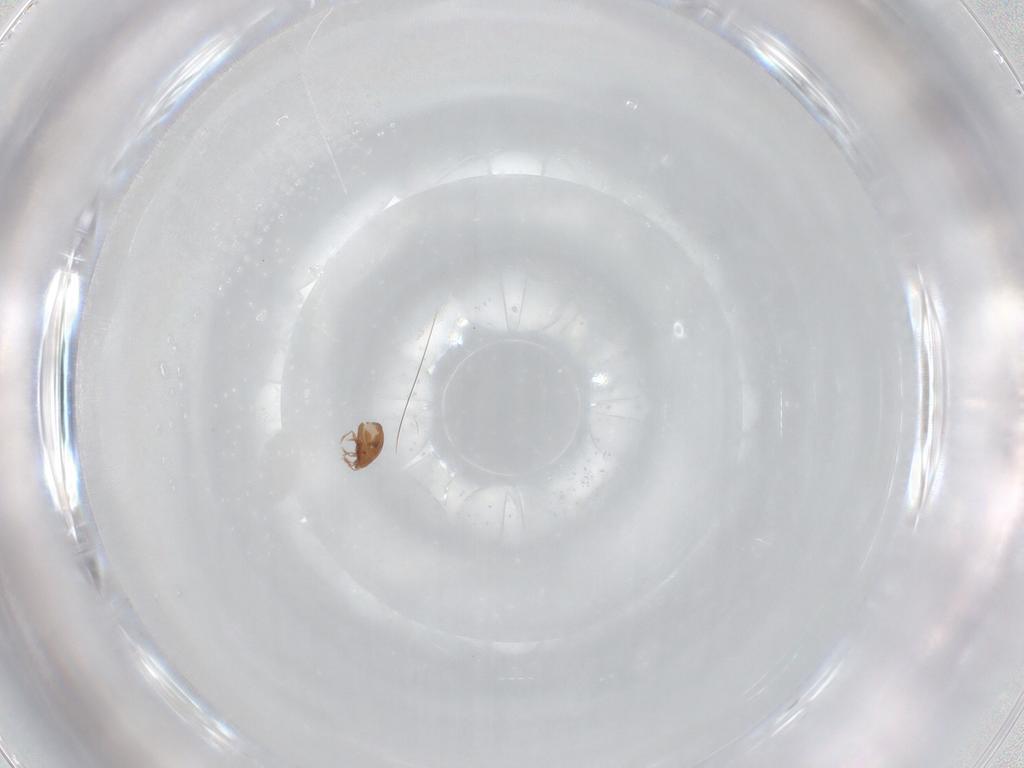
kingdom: Animalia
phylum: Arthropoda
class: Arachnida
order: Sarcoptiformes
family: Scheloribatidae
